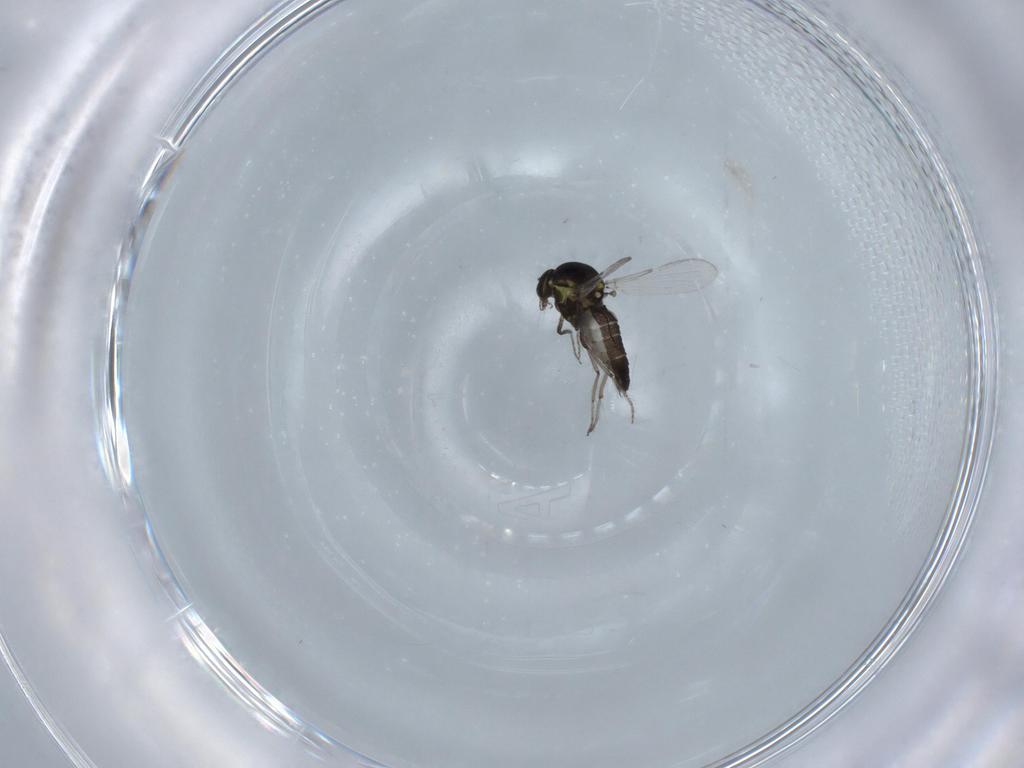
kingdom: Animalia
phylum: Arthropoda
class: Insecta
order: Diptera
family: Ceratopogonidae
